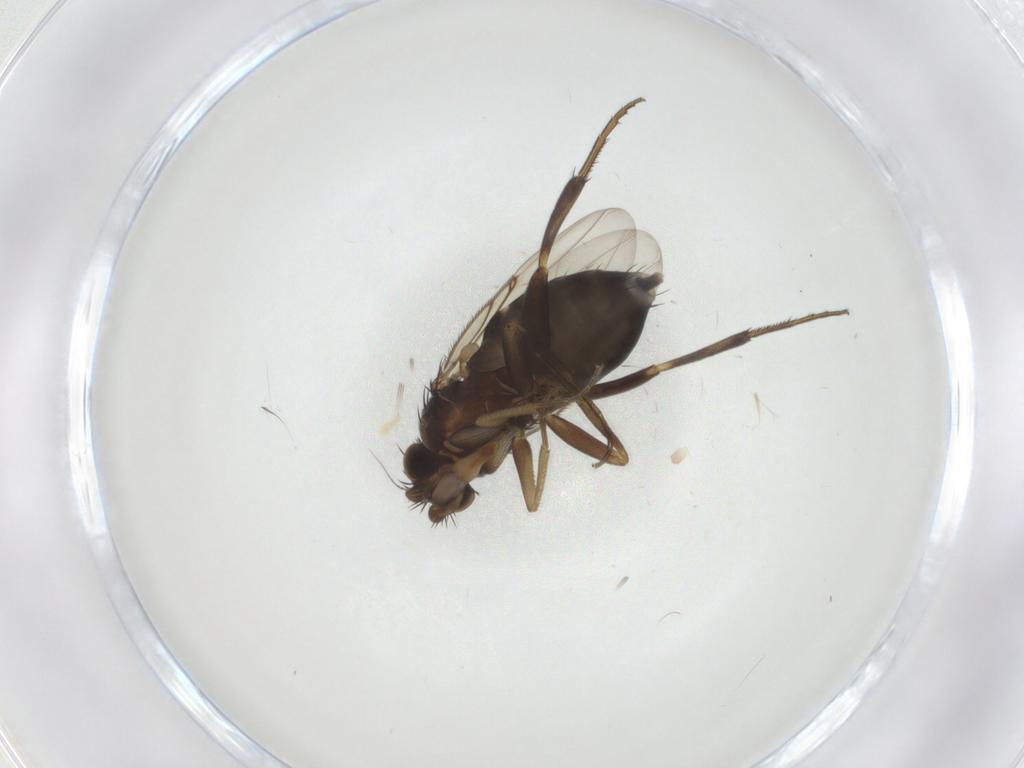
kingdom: Animalia
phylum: Arthropoda
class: Insecta
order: Diptera
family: Phoridae
